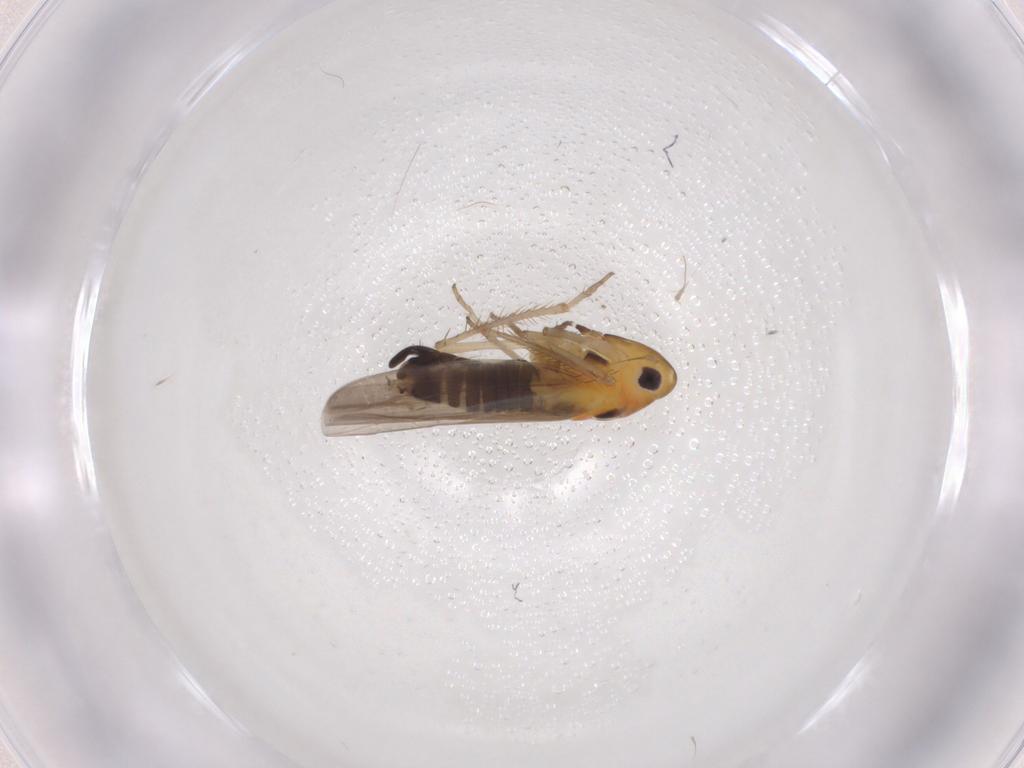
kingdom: Animalia
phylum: Arthropoda
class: Insecta
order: Hemiptera
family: Cicadellidae
